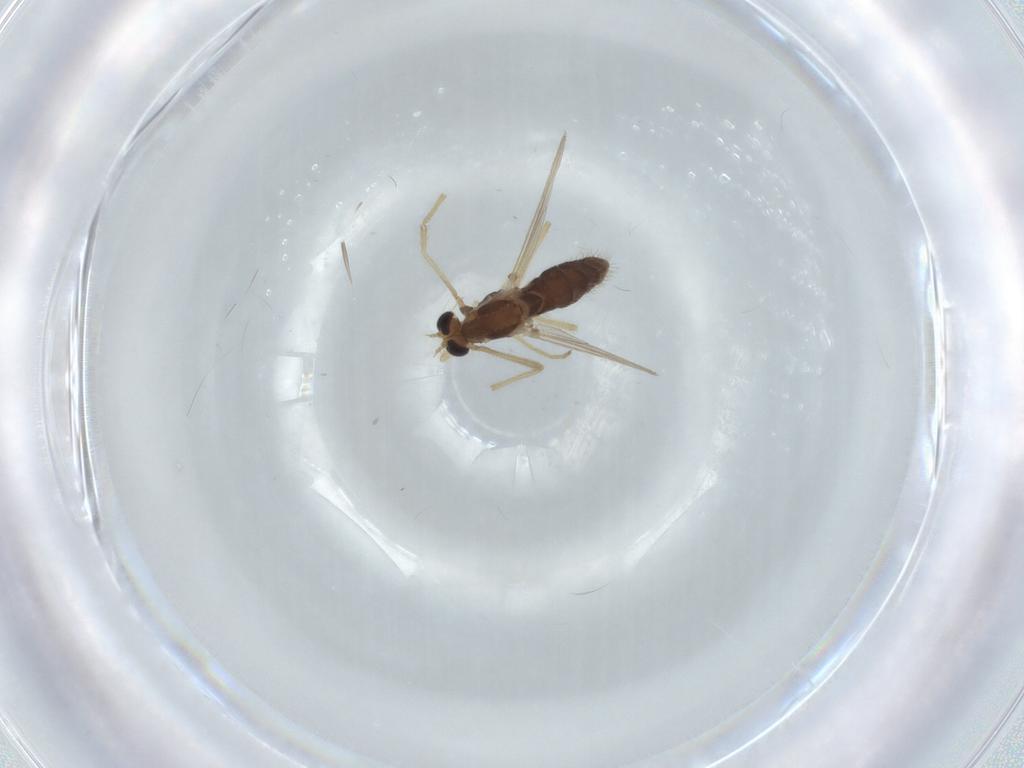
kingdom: Animalia
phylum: Arthropoda
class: Insecta
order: Diptera
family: Chironomidae
